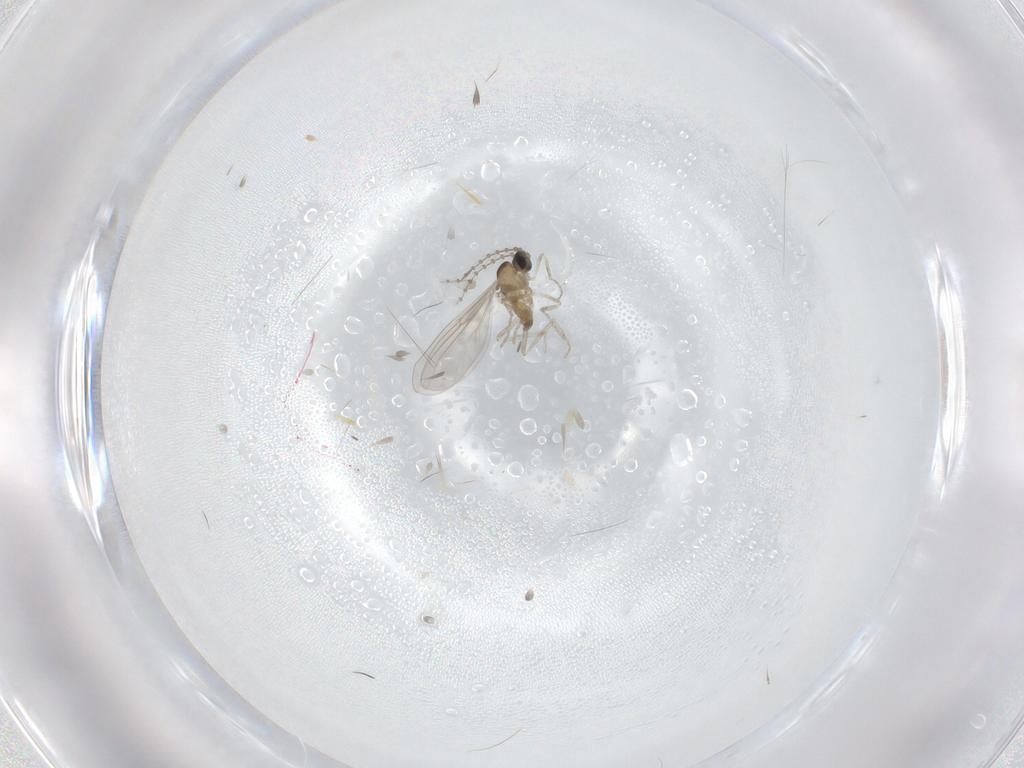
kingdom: Animalia
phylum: Arthropoda
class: Insecta
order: Diptera
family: Cecidomyiidae
